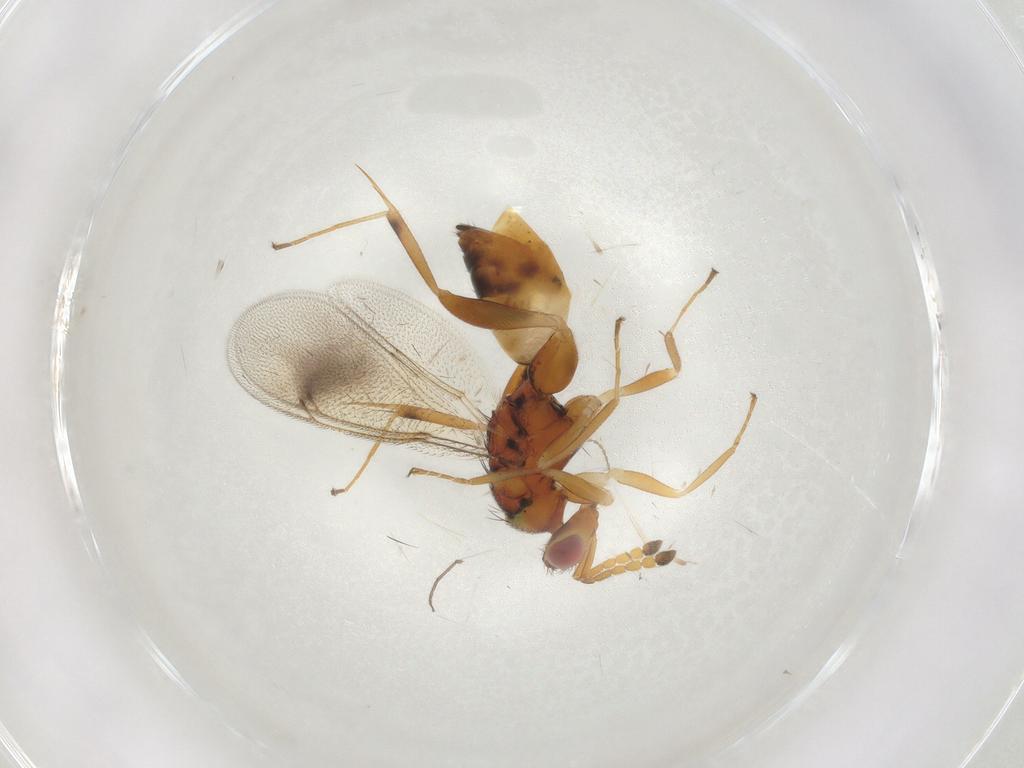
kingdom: Animalia
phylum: Arthropoda
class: Insecta
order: Hymenoptera
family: Eulophidae
